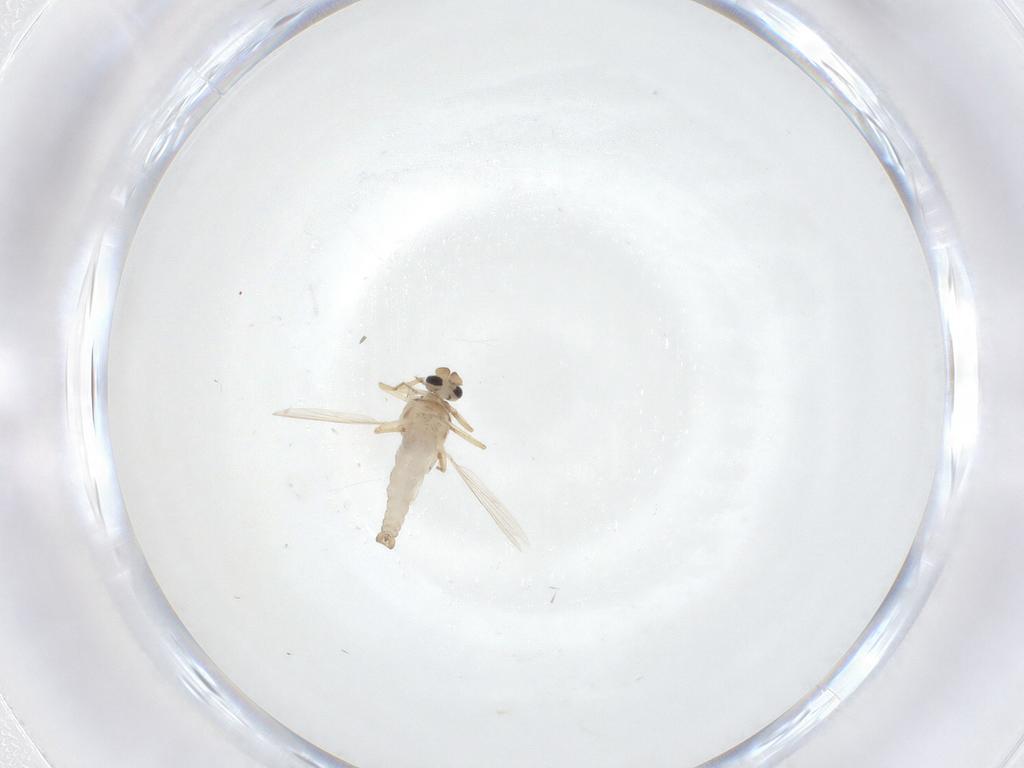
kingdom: Animalia
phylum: Arthropoda
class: Insecta
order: Diptera
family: Ceratopogonidae
